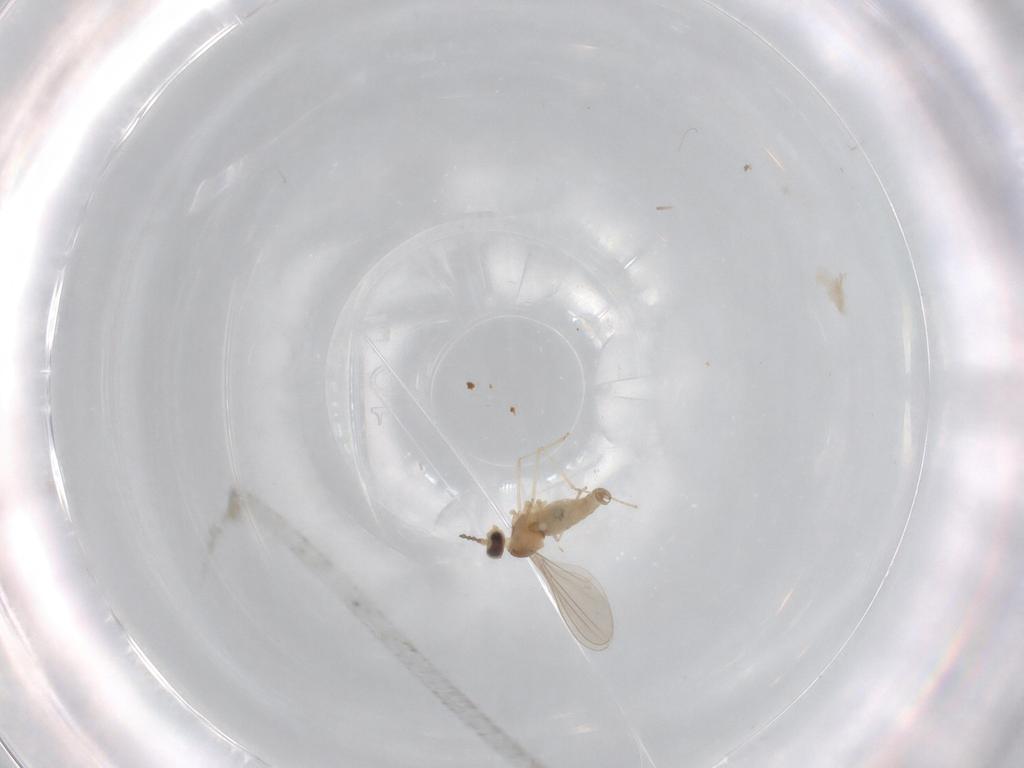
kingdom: Animalia
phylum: Arthropoda
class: Insecta
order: Diptera
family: Cecidomyiidae
